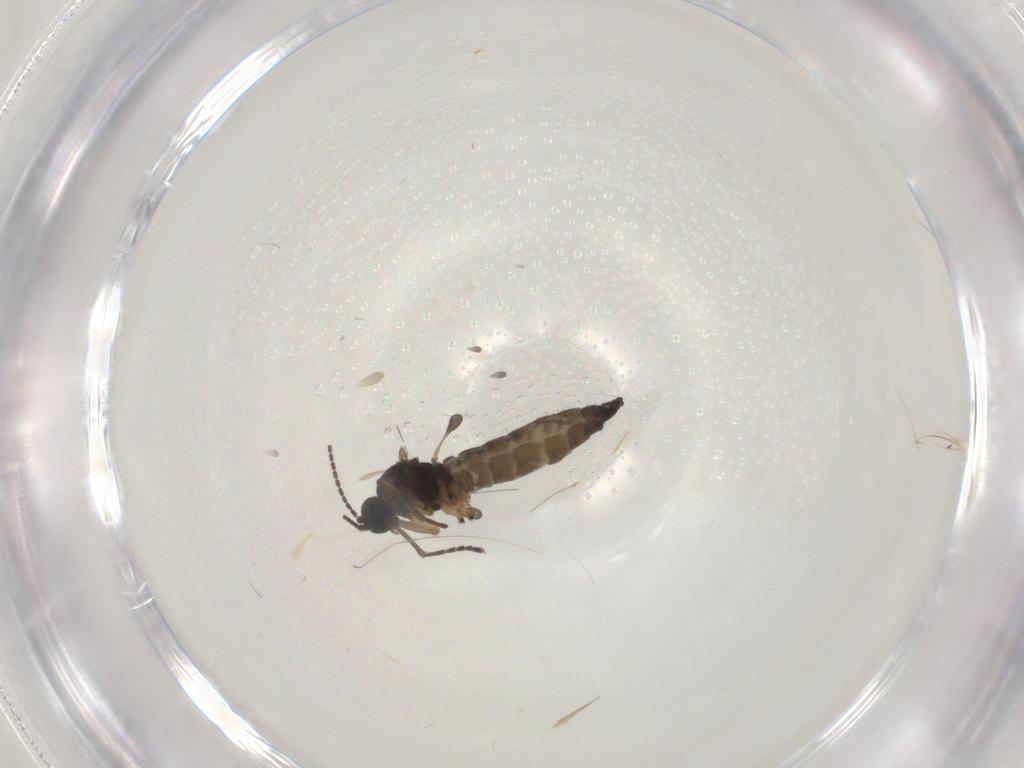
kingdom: Animalia
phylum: Arthropoda
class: Insecta
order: Diptera
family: Sciaridae
